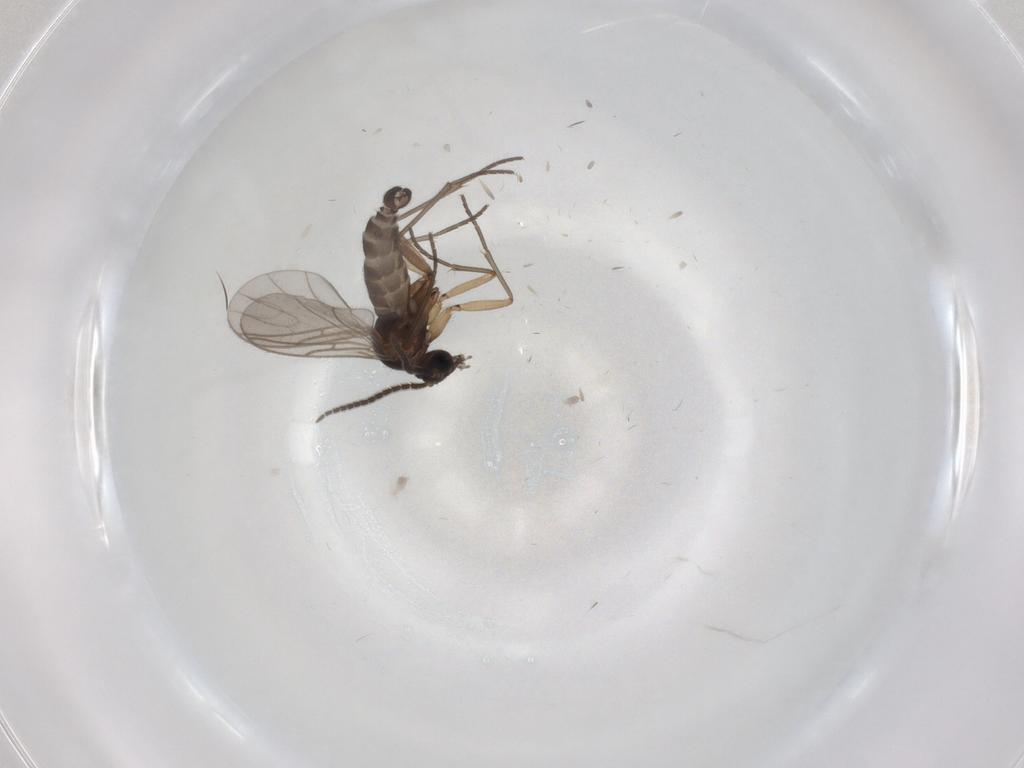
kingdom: Animalia
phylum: Arthropoda
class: Insecta
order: Diptera
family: Sciaridae
